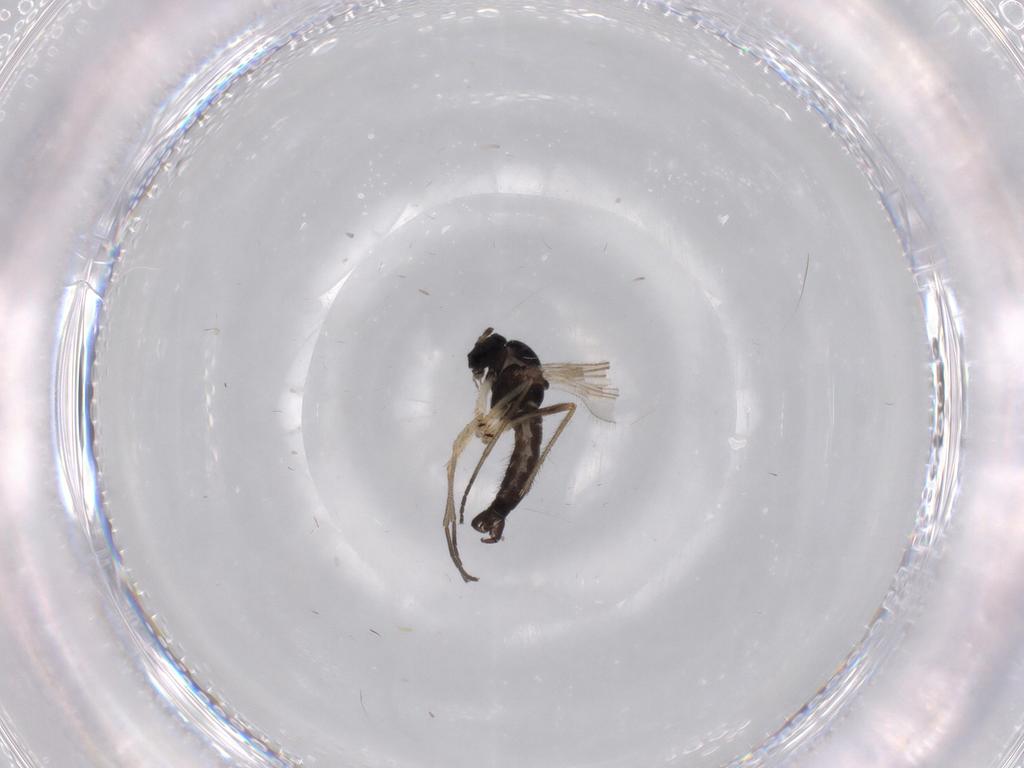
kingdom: Animalia
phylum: Arthropoda
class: Insecta
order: Diptera
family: Sciaridae
